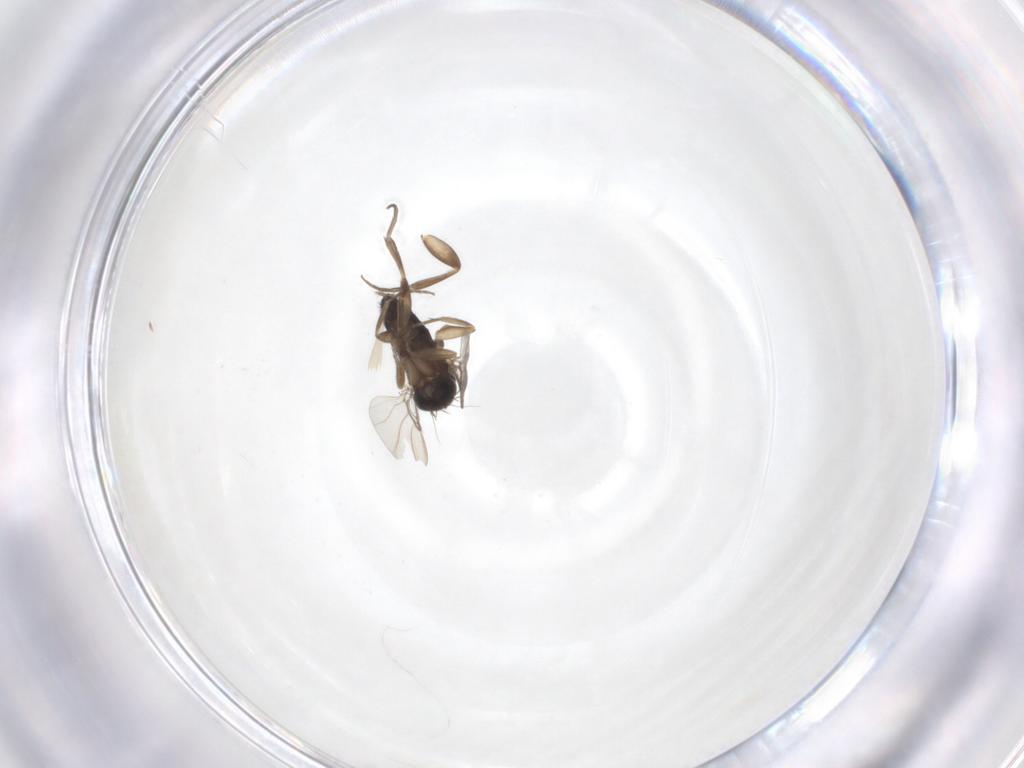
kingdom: Animalia
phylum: Arthropoda
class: Insecta
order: Diptera
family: Phoridae
